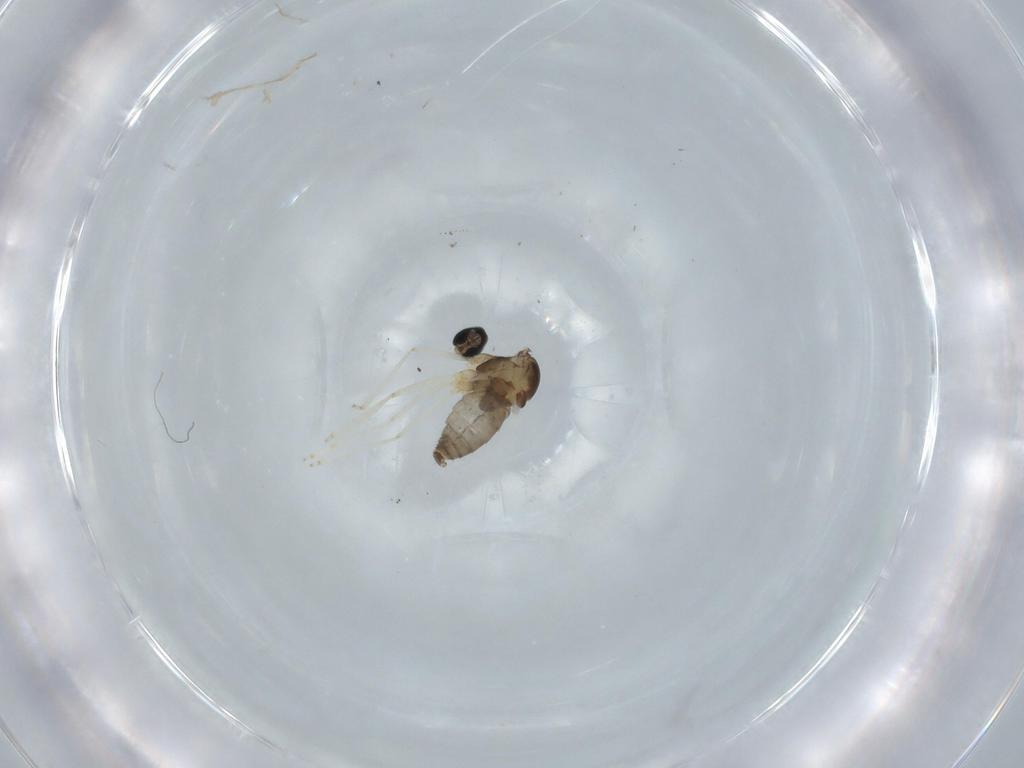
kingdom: Animalia
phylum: Arthropoda
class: Insecta
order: Diptera
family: Cecidomyiidae
